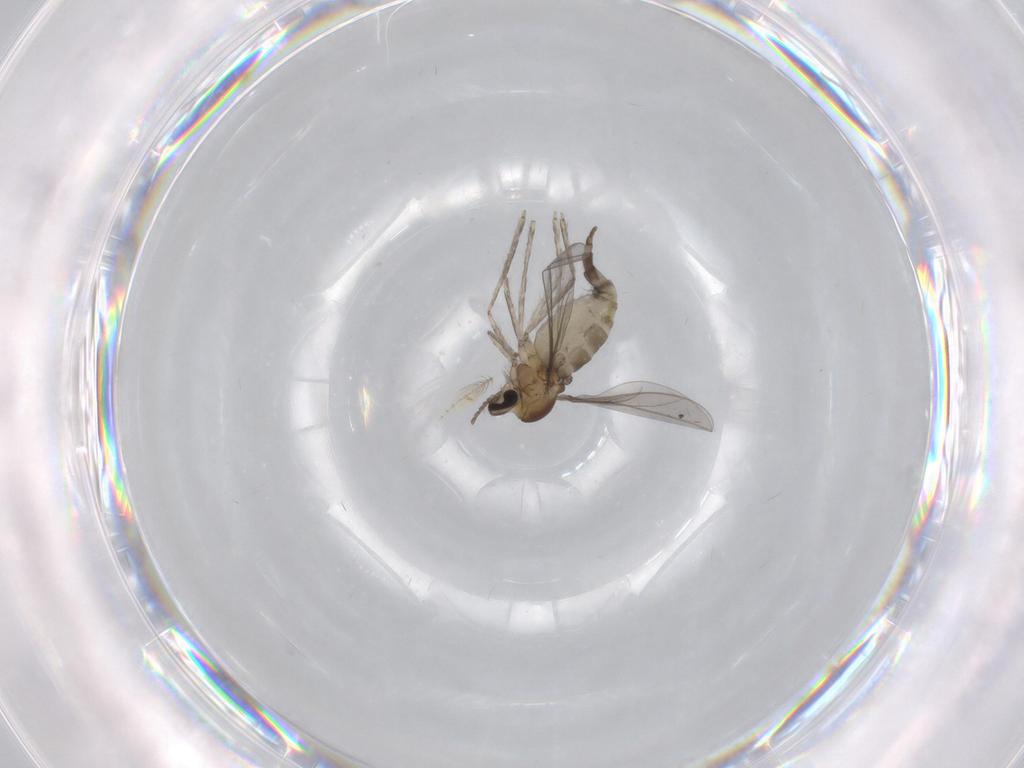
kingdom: Animalia
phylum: Arthropoda
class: Insecta
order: Diptera
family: Cecidomyiidae
